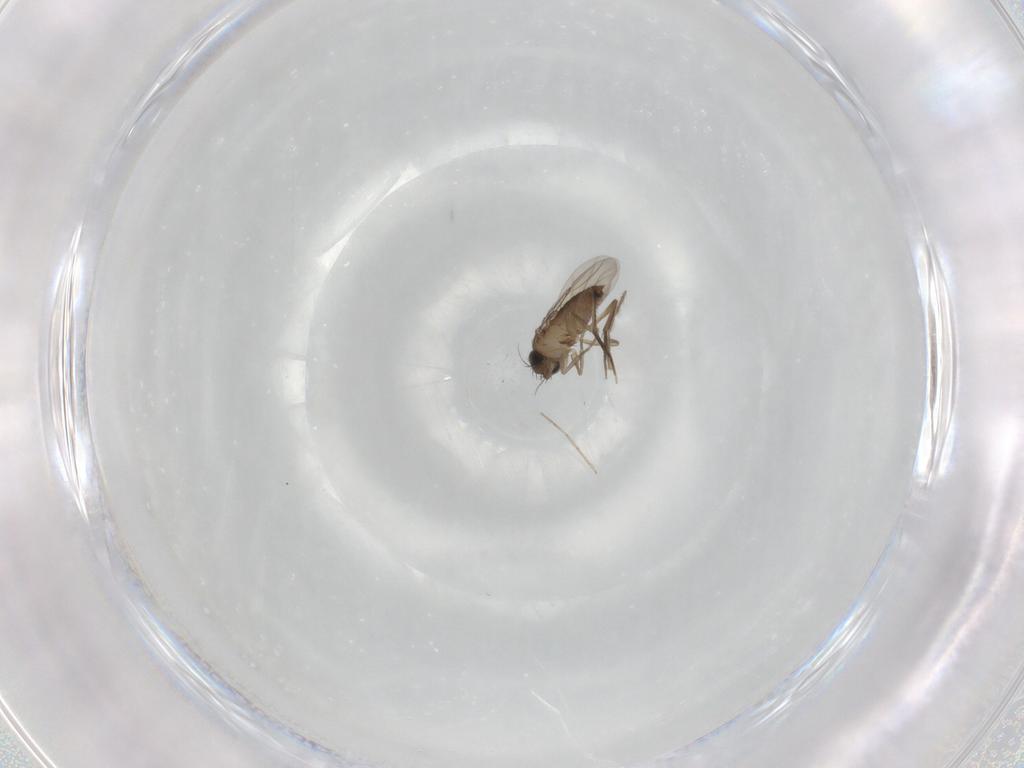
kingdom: Animalia
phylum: Arthropoda
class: Insecta
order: Diptera
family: Phoridae
